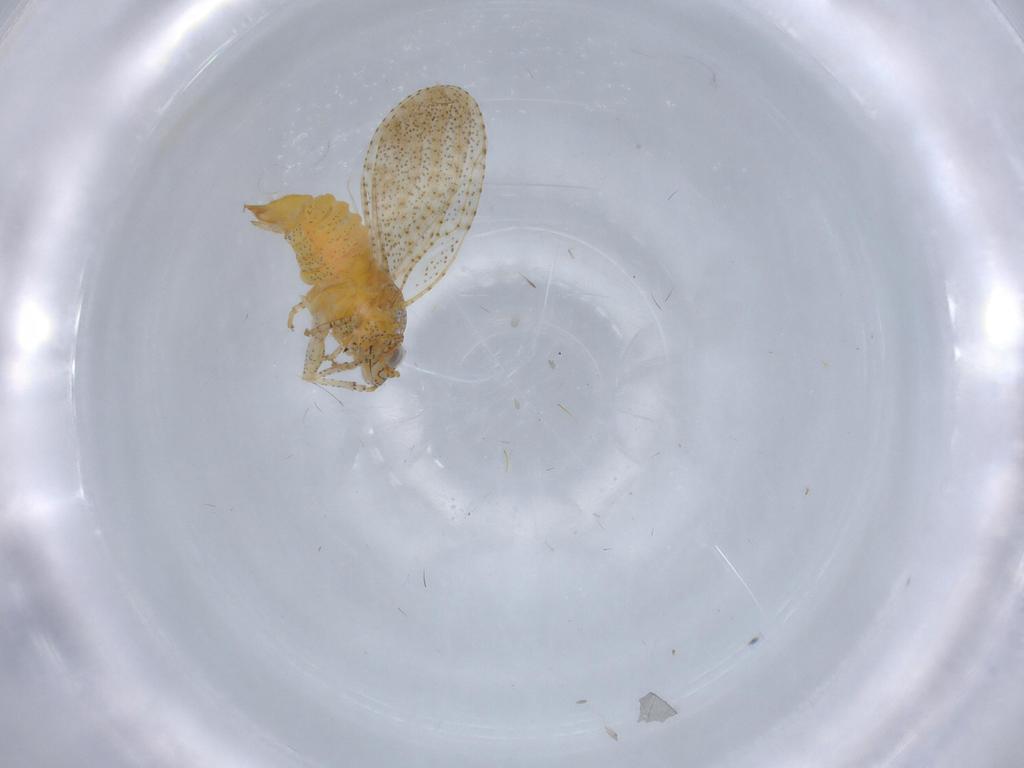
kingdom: Animalia
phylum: Arthropoda
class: Insecta
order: Hemiptera
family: Psyllidae
